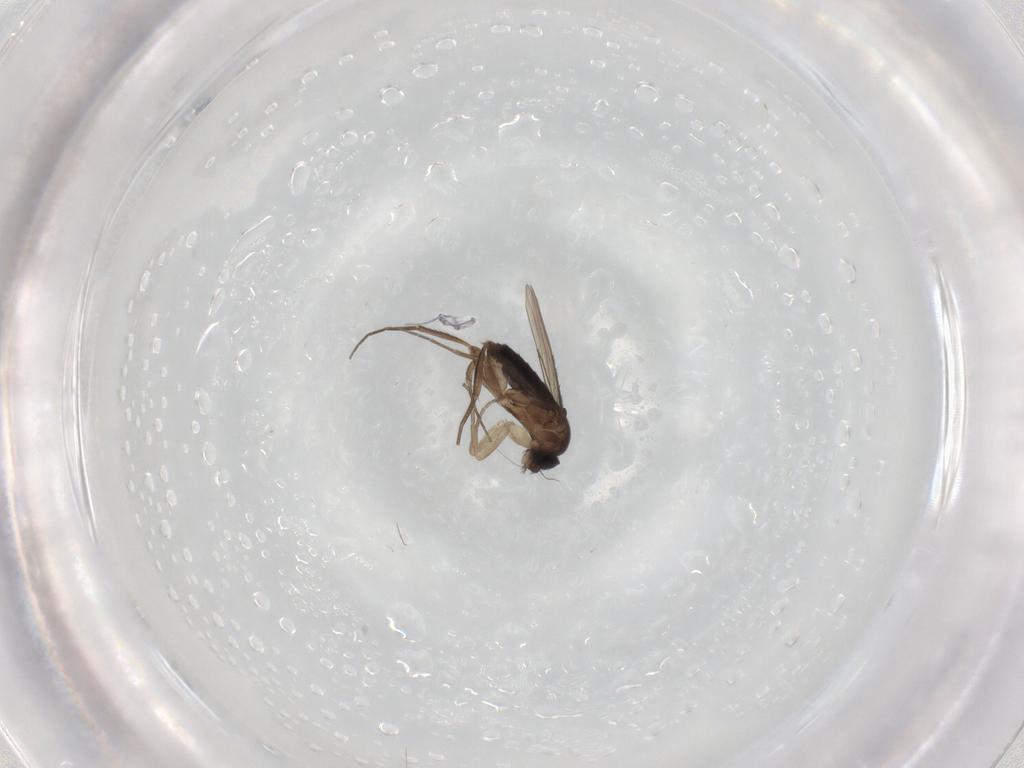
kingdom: Animalia
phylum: Arthropoda
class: Insecta
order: Diptera
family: Phoridae
